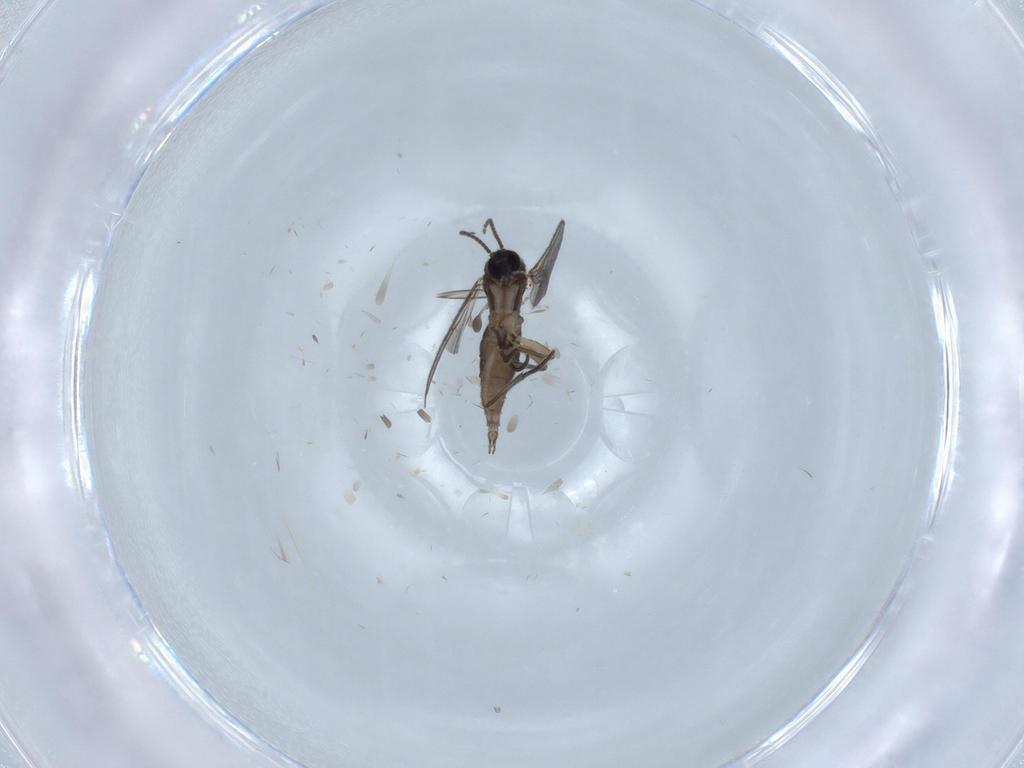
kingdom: Animalia
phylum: Arthropoda
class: Insecta
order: Diptera
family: Sciaridae
